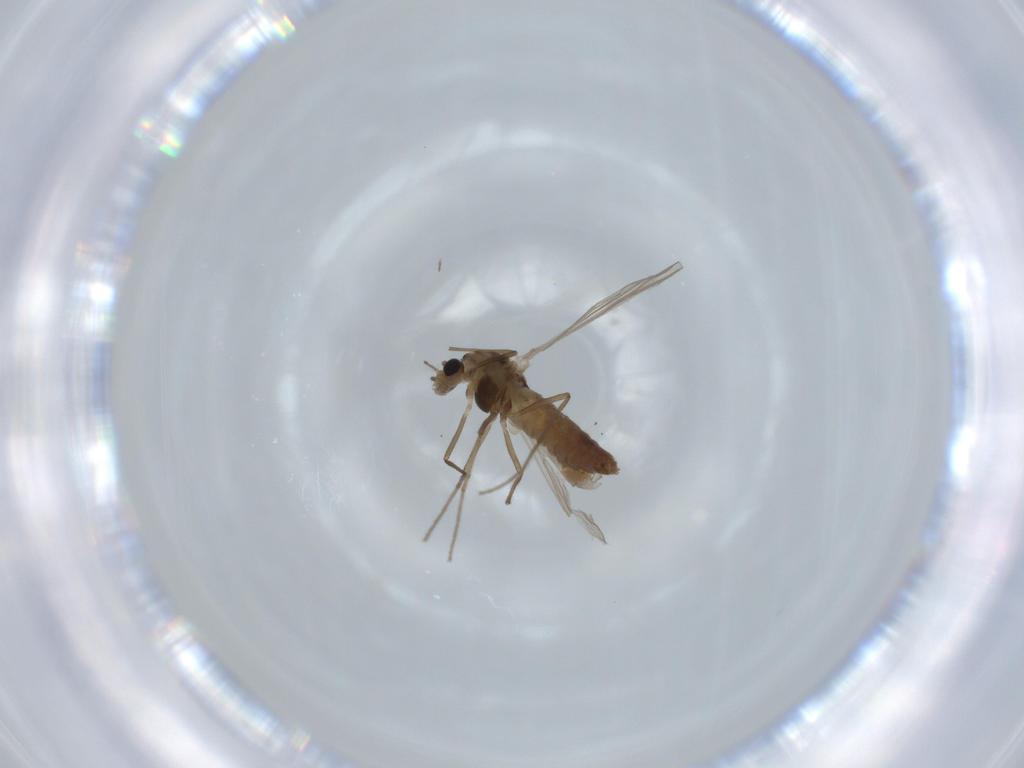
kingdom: Animalia
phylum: Arthropoda
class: Insecta
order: Diptera
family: Chironomidae
